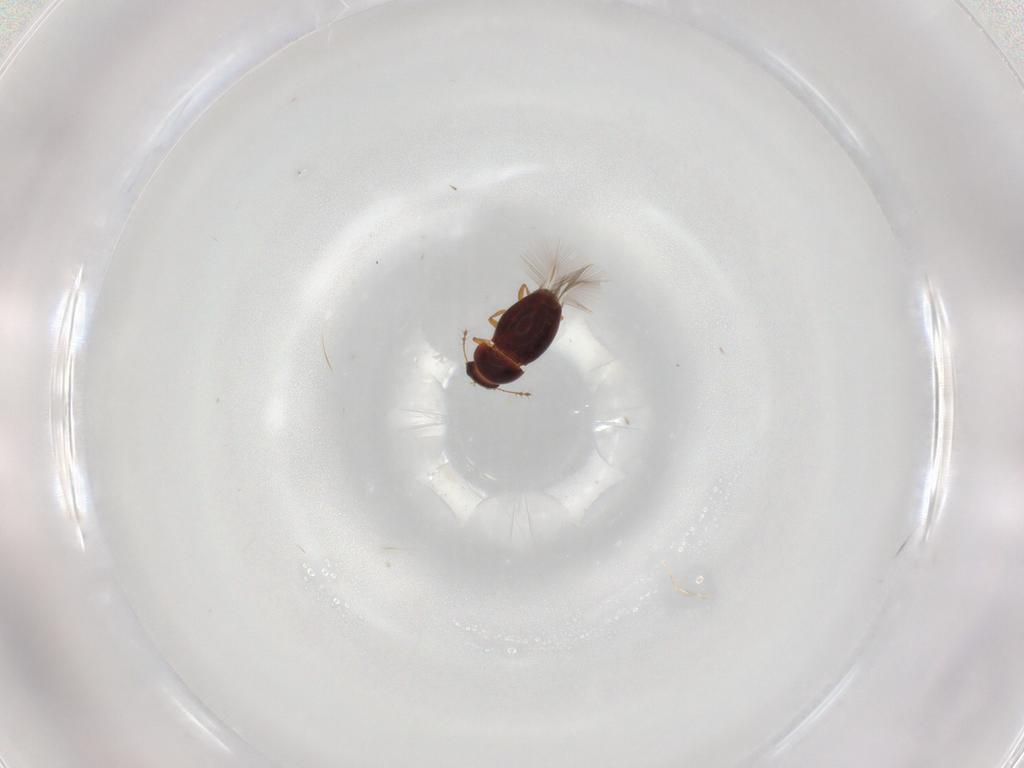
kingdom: Animalia
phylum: Arthropoda
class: Insecta
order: Coleoptera
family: Ptiliidae
